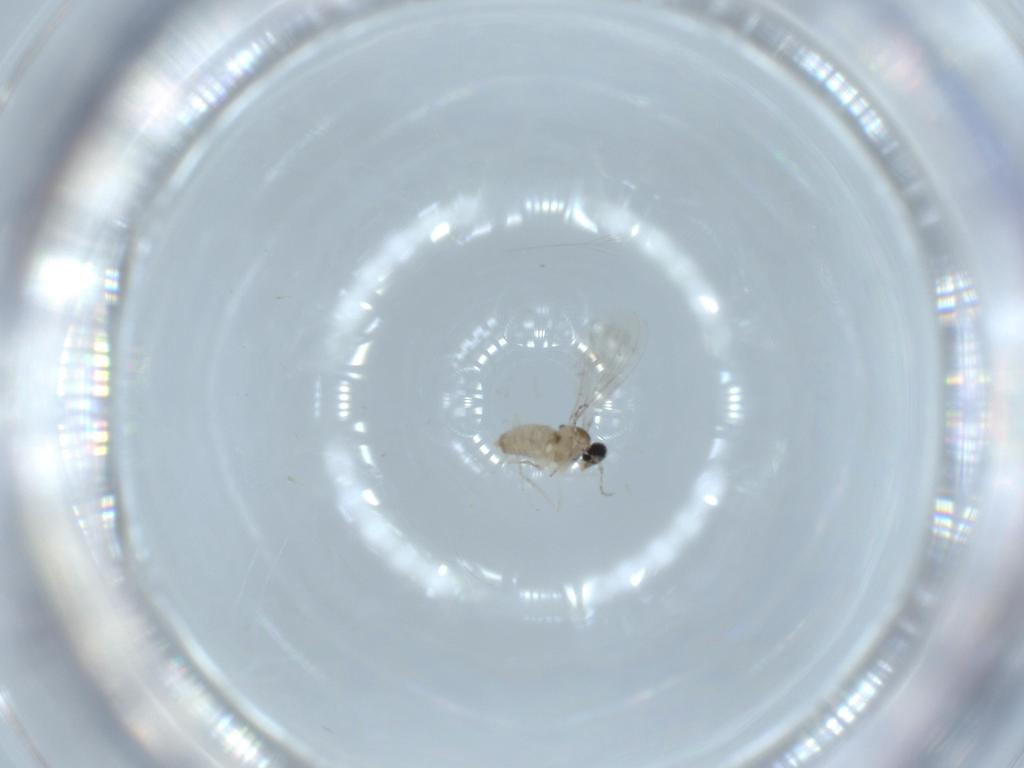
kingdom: Animalia
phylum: Arthropoda
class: Insecta
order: Diptera
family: Cecidomyiidae
